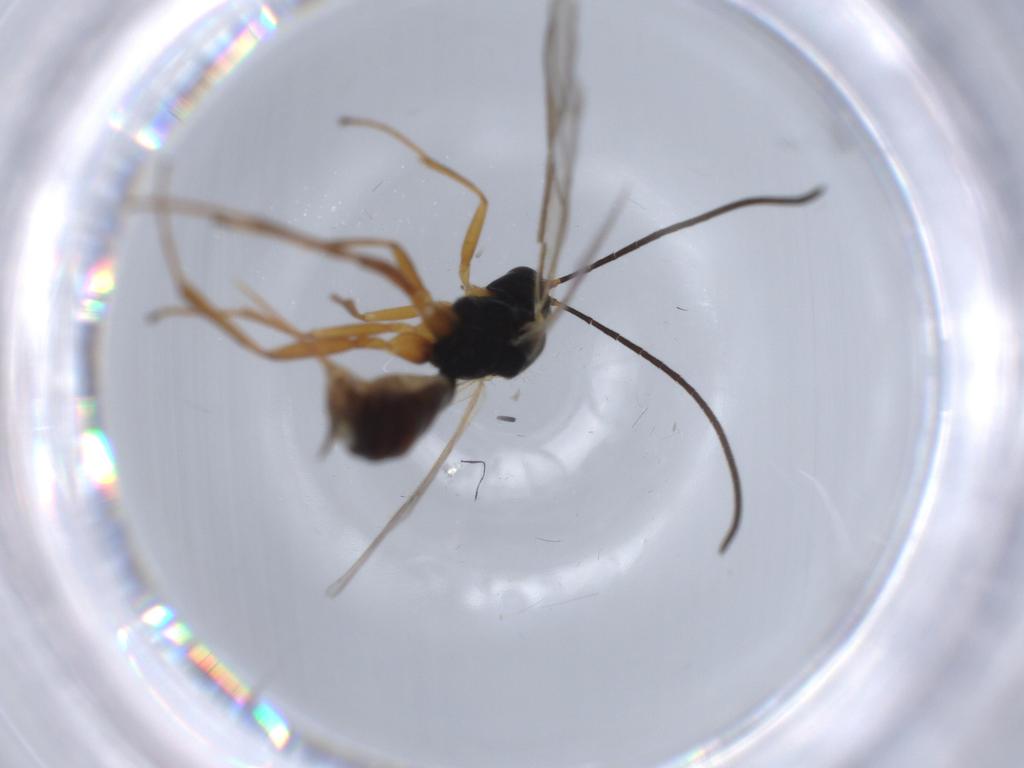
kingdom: Animalia
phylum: Arthropoda
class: Insecta
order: Hymenoptera
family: Ichneumonidae
